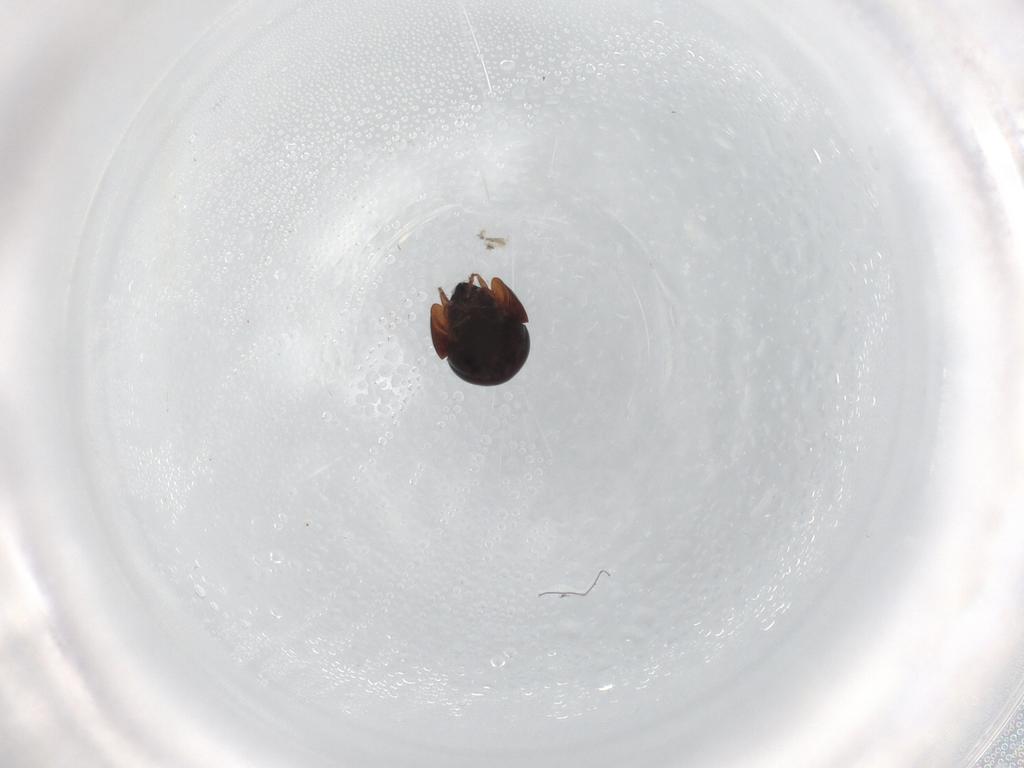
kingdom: Animalia
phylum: Arthropoda
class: Arachnida
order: Sarcoptiformes
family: Galumnidae
